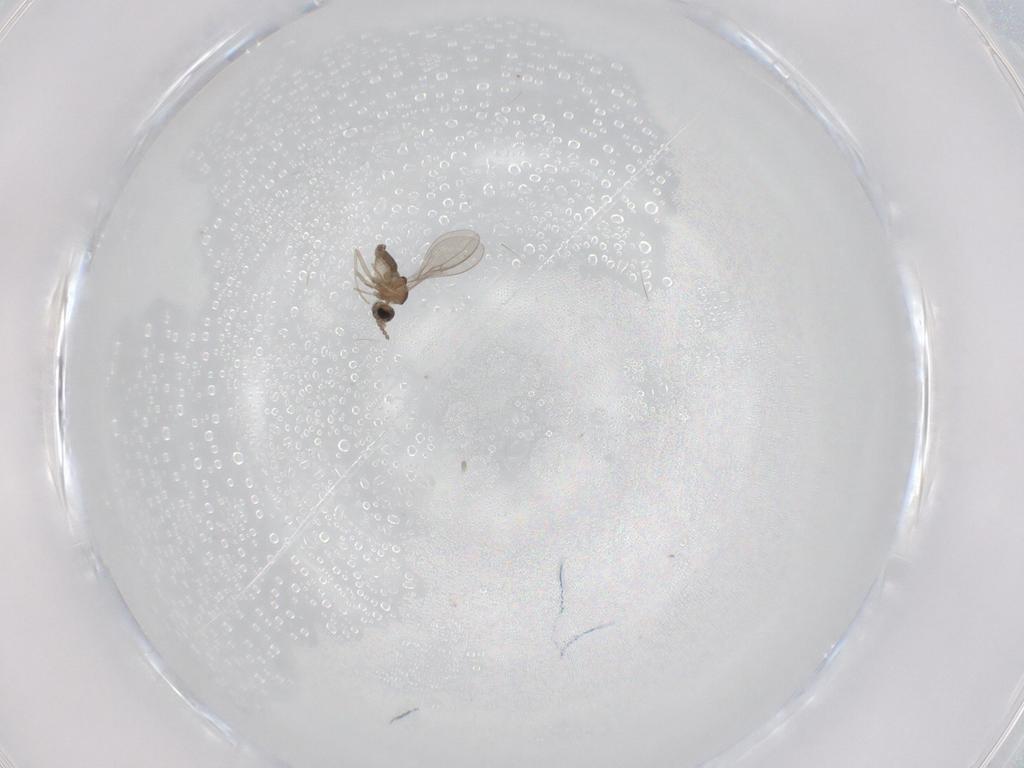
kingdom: Animalia
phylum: Arthropoda
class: Insecta
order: Diptera
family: Cecidomyiidae
